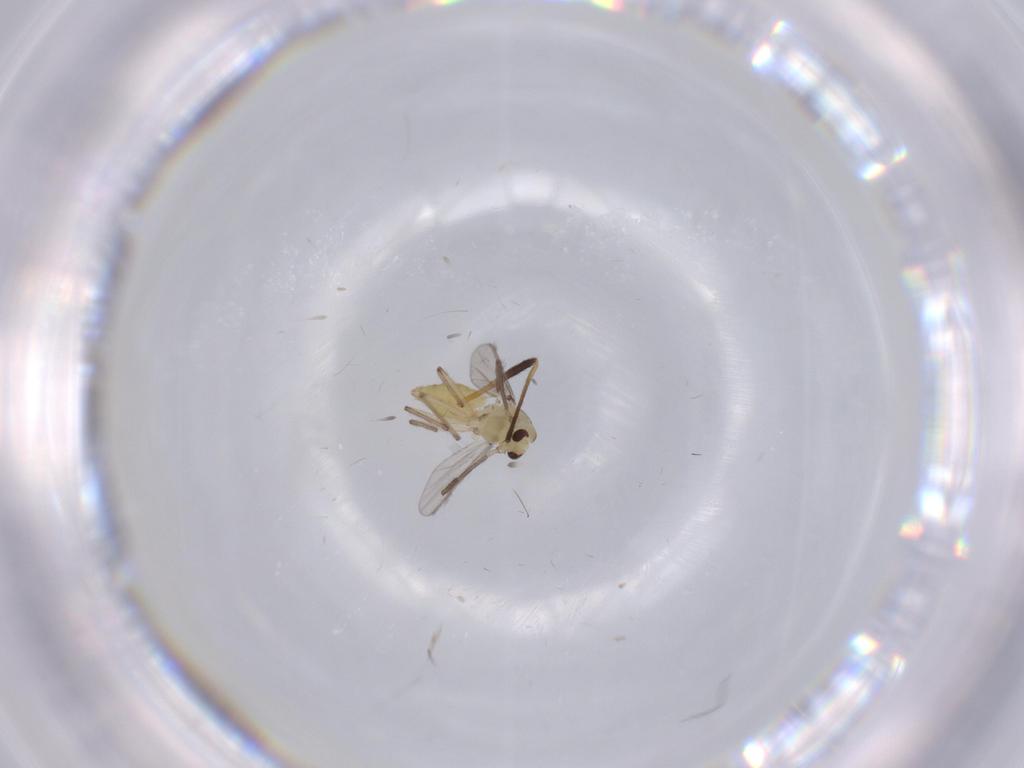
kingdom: Animalia
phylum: Arthropoda
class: Insecta
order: Diptera
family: Chironomidae
